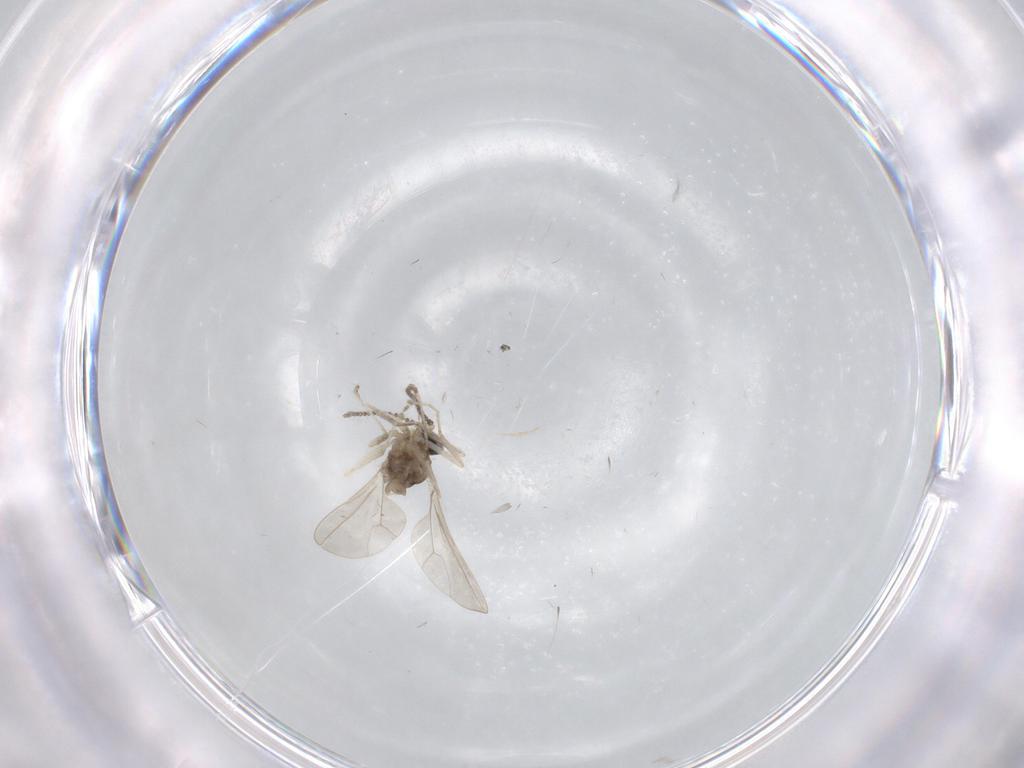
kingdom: Animalia
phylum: Arthropoda
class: Insecta
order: Diptera
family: Cecidomyiidae
